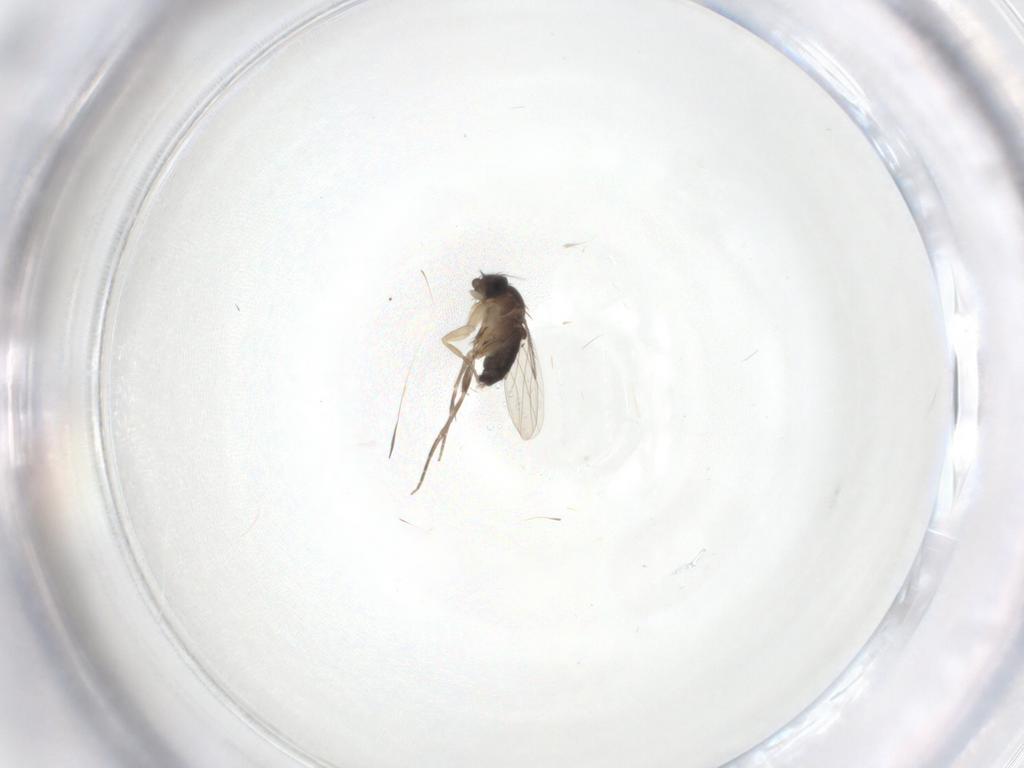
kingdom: Animalia
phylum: Arthropoda
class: Insecta
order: Diptera
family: Phoridae
